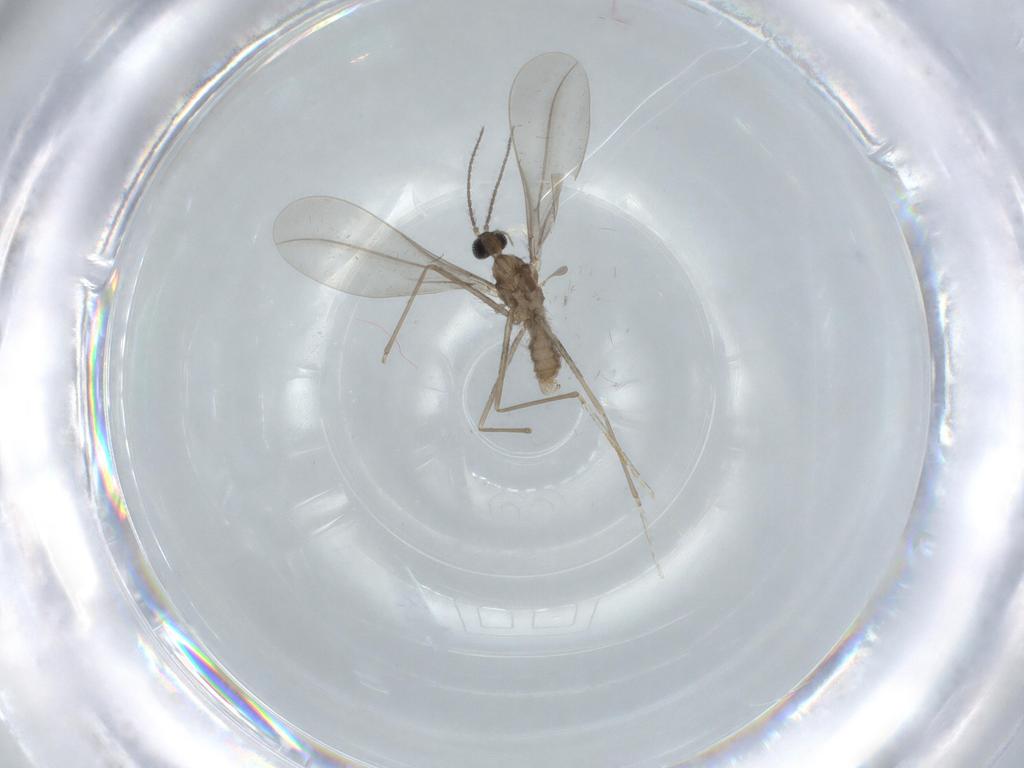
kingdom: Animalia
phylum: Arthropoda
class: Insecta
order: Diptera
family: Cecidomyiidae
